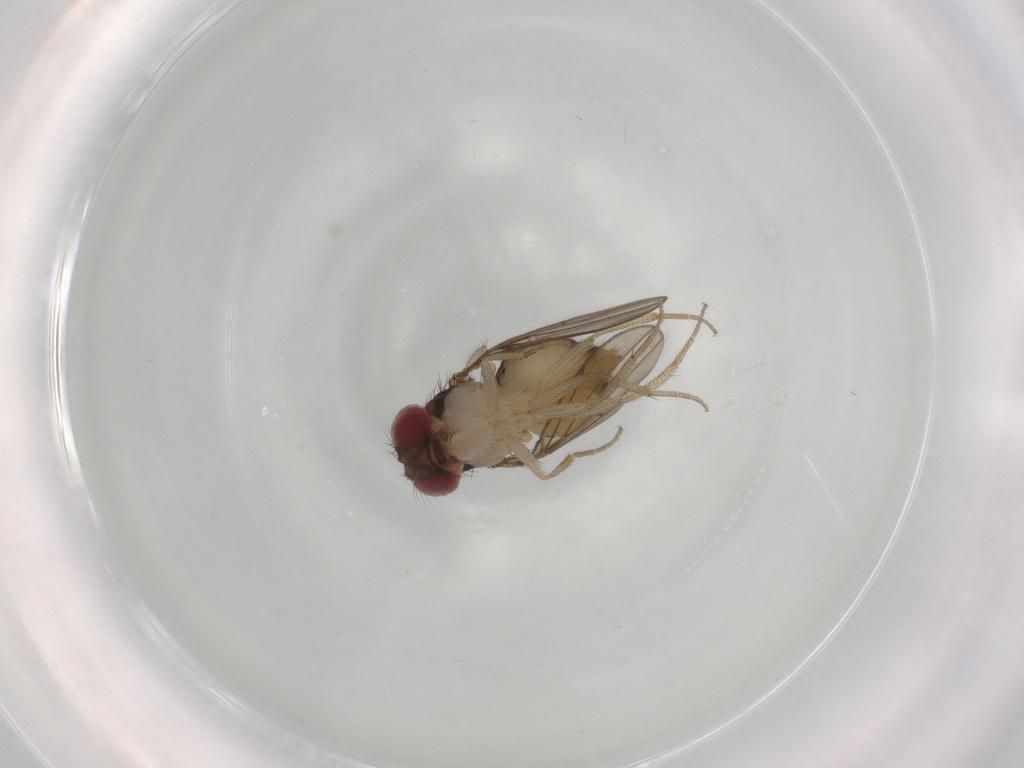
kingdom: Animalia
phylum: Arthropoda
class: Insecta
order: Diptera
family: Drosophilidae
